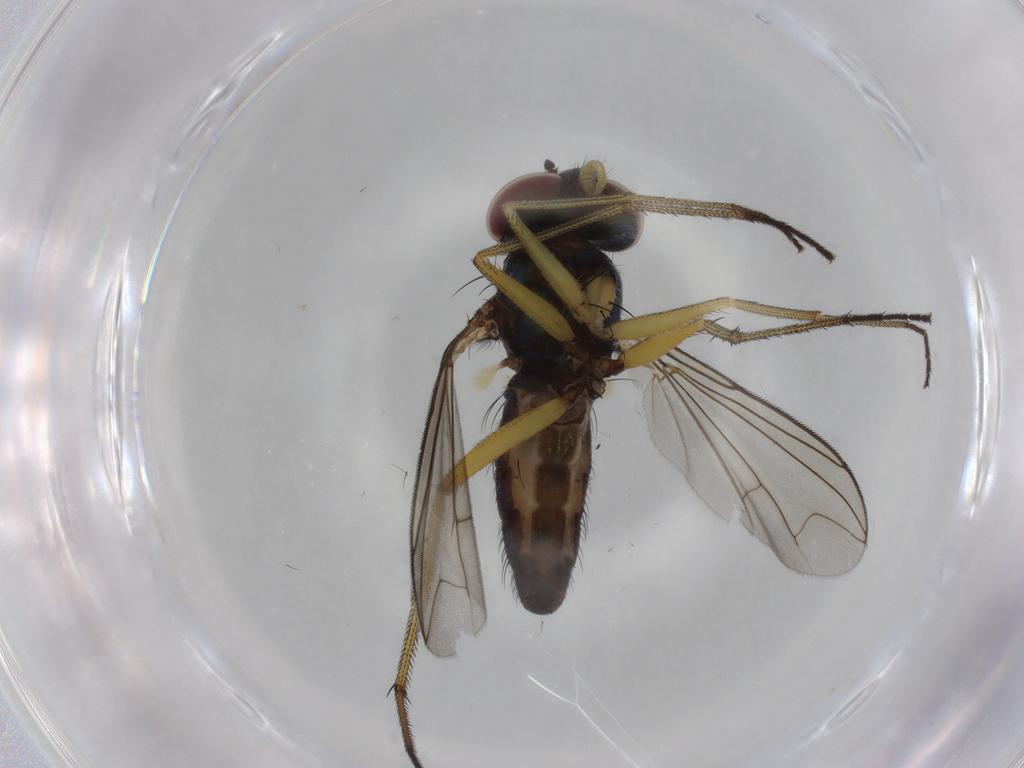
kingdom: Animalia
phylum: Arthropoda
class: Insecta
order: Diptera
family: Dolichopodidae
